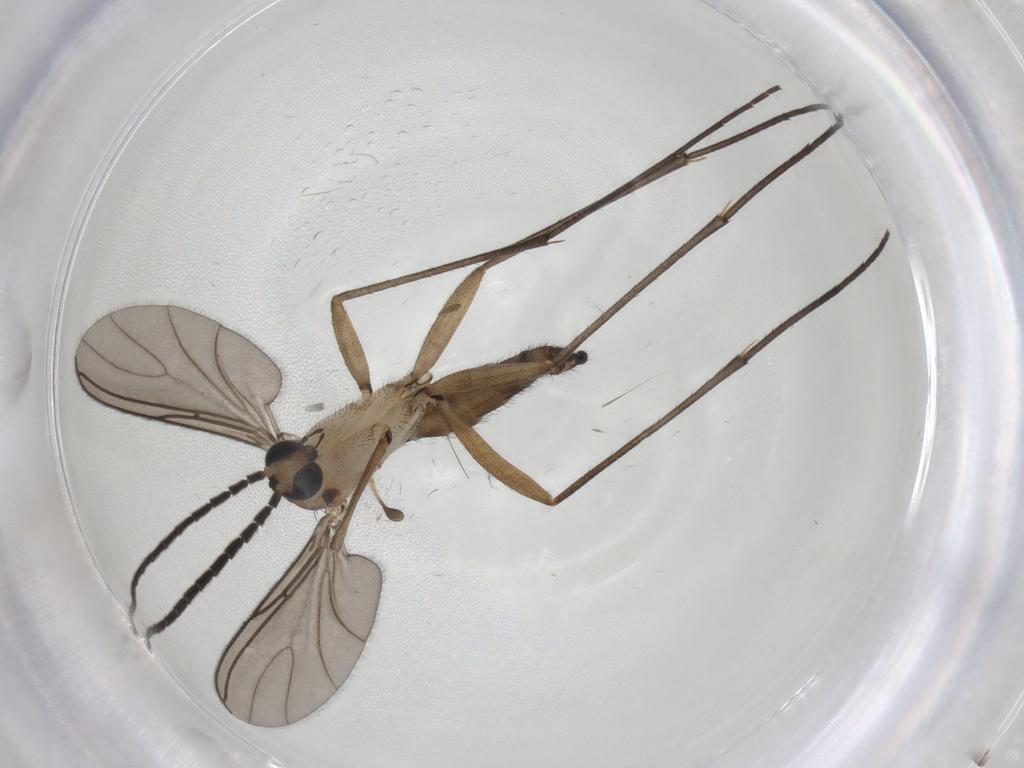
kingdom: Animalia
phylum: Arthropoda
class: Insecta
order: Diptera
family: Sciaridae
